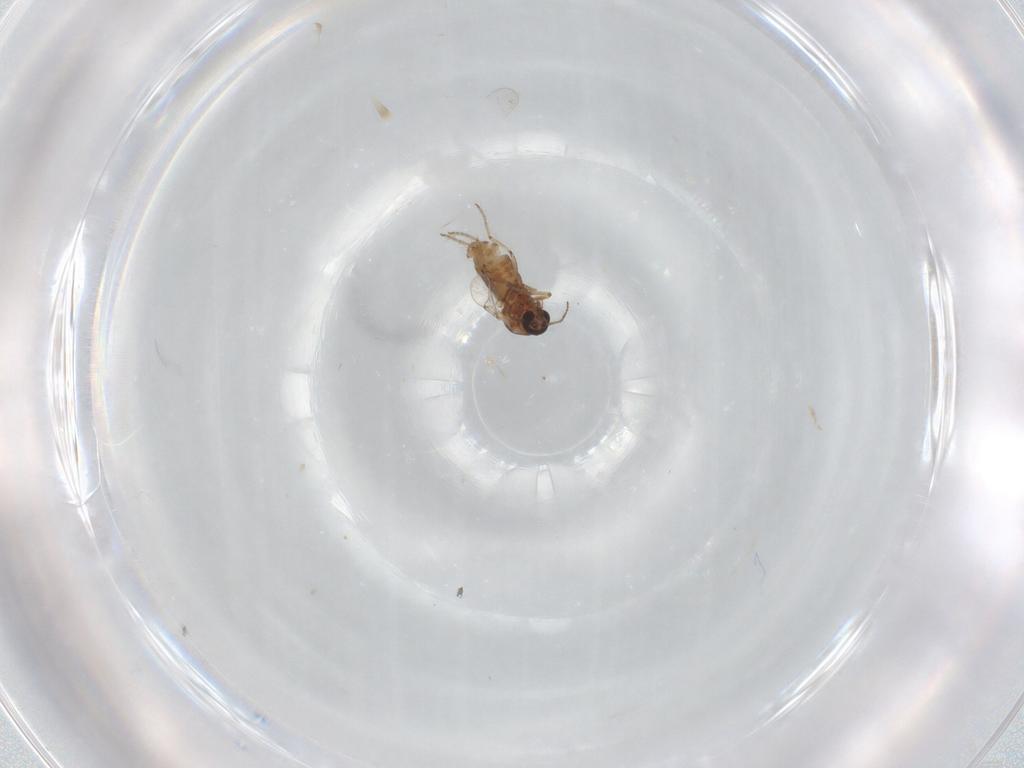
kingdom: Animalia
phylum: Arthropoda
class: Insecta
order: Diptera
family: Ceratopogonidae
